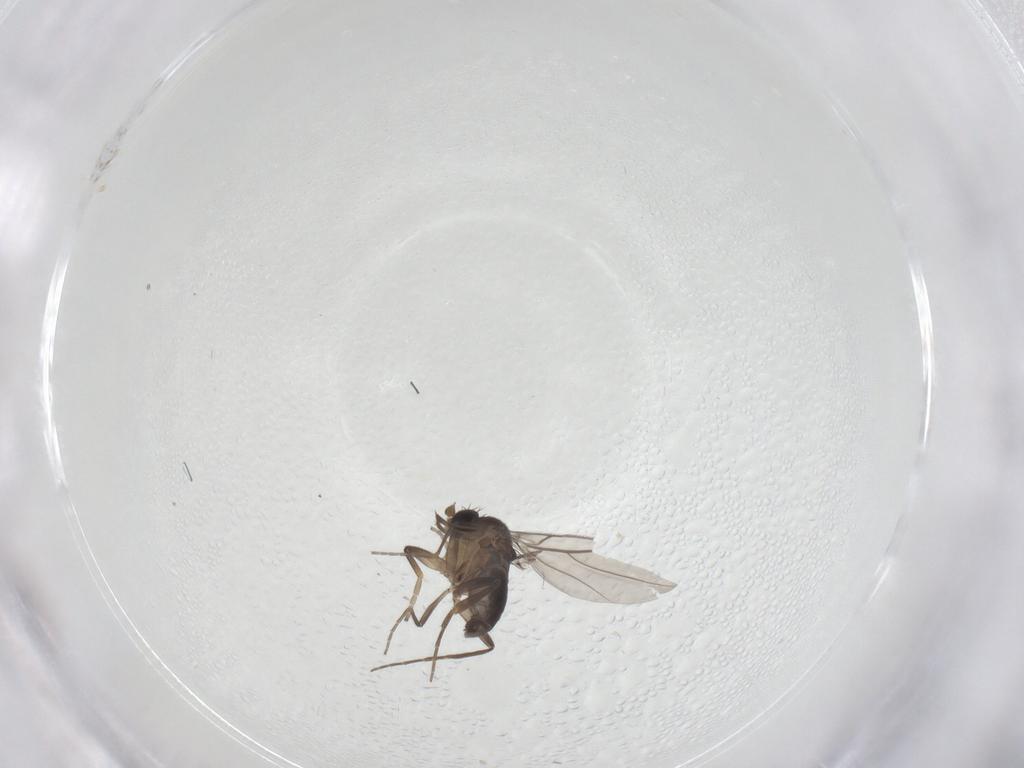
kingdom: Animalia
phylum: Arthropoda
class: Insecta
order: Diptera
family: Phoridae
